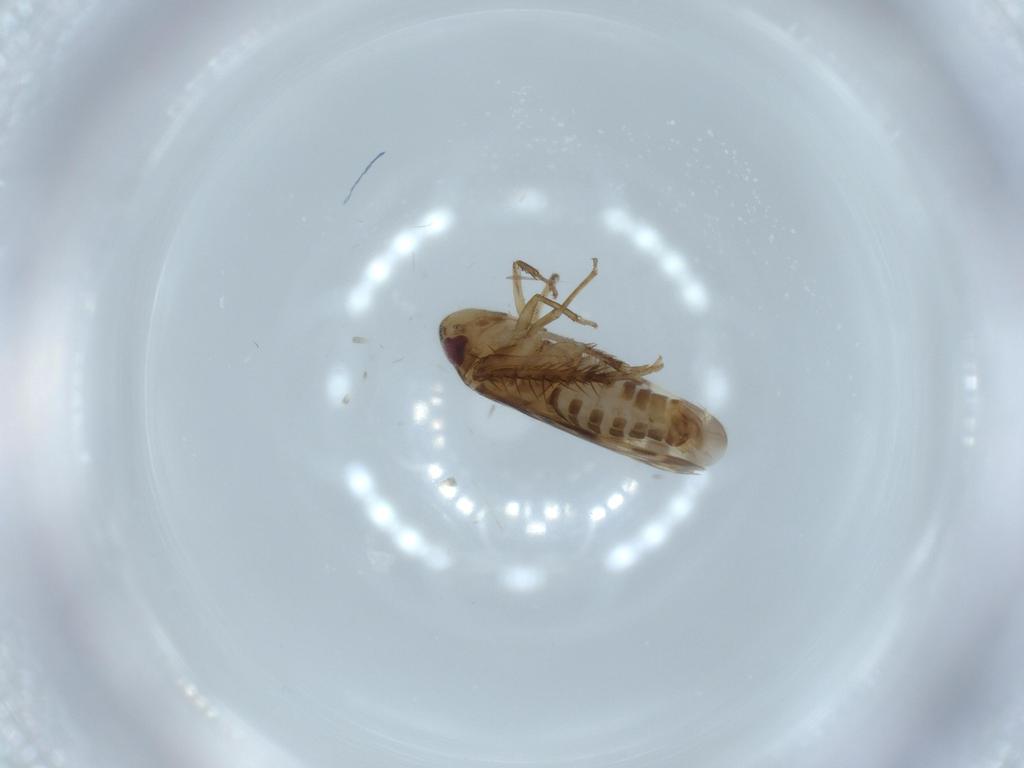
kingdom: Animalia
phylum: Arthropoda
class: Insecta
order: Hemiptera
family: Cicadellidae
